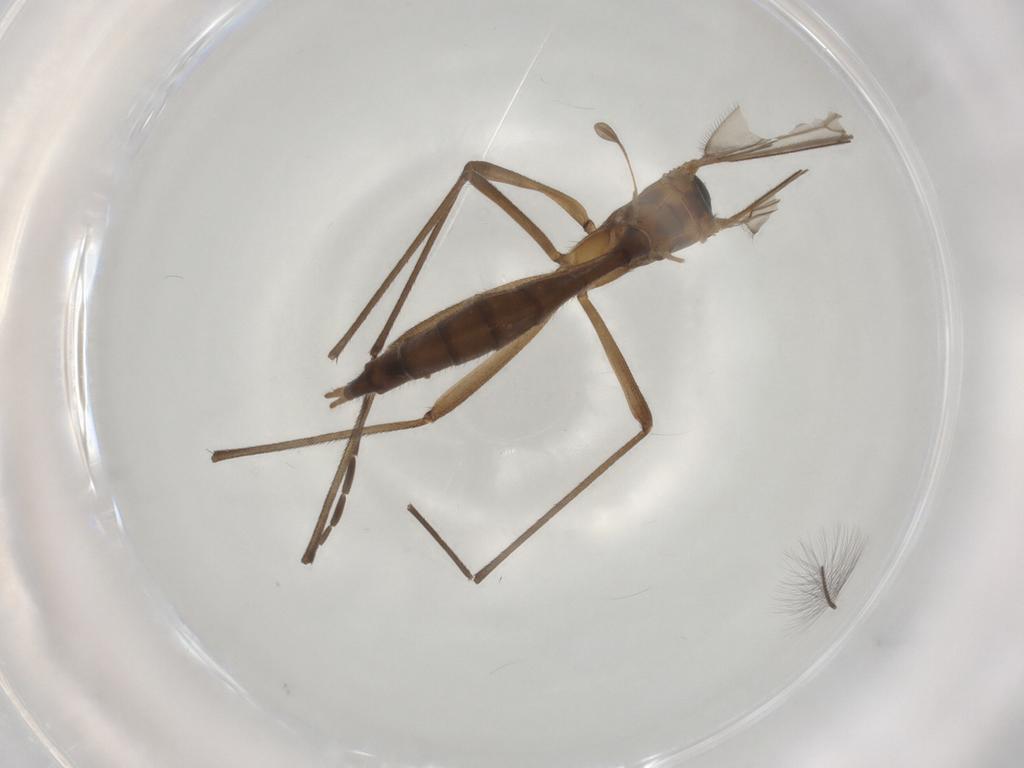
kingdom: Animalia
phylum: Arthropoda
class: Insecta
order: Diptera
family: Bolitophilidae
